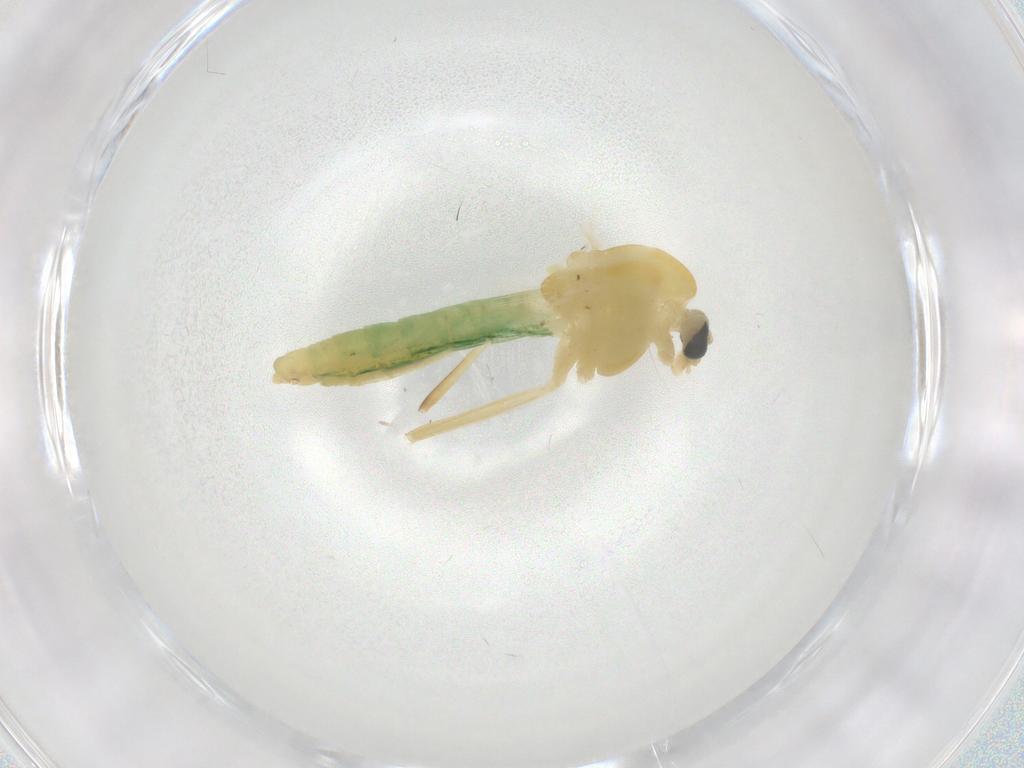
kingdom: Animalia
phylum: Arthropoda
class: Insecta
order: Diptera
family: Chironomidae
